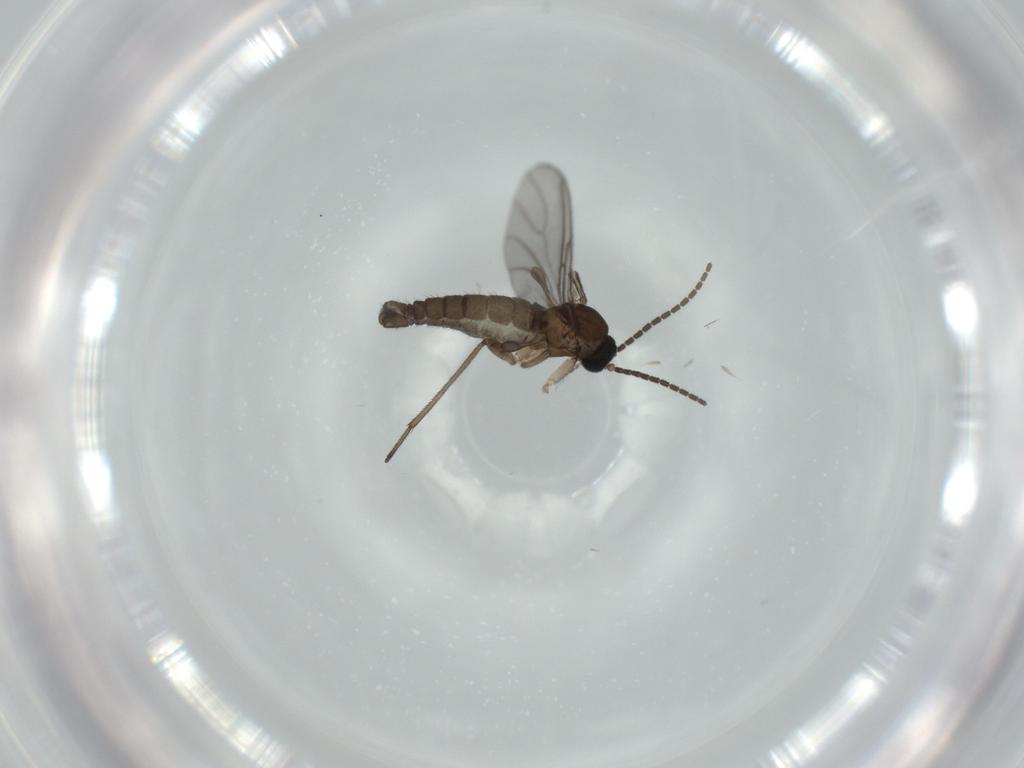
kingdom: Animalia
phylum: Arthropoda
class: Insecta
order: Diptera
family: Sciaridae
